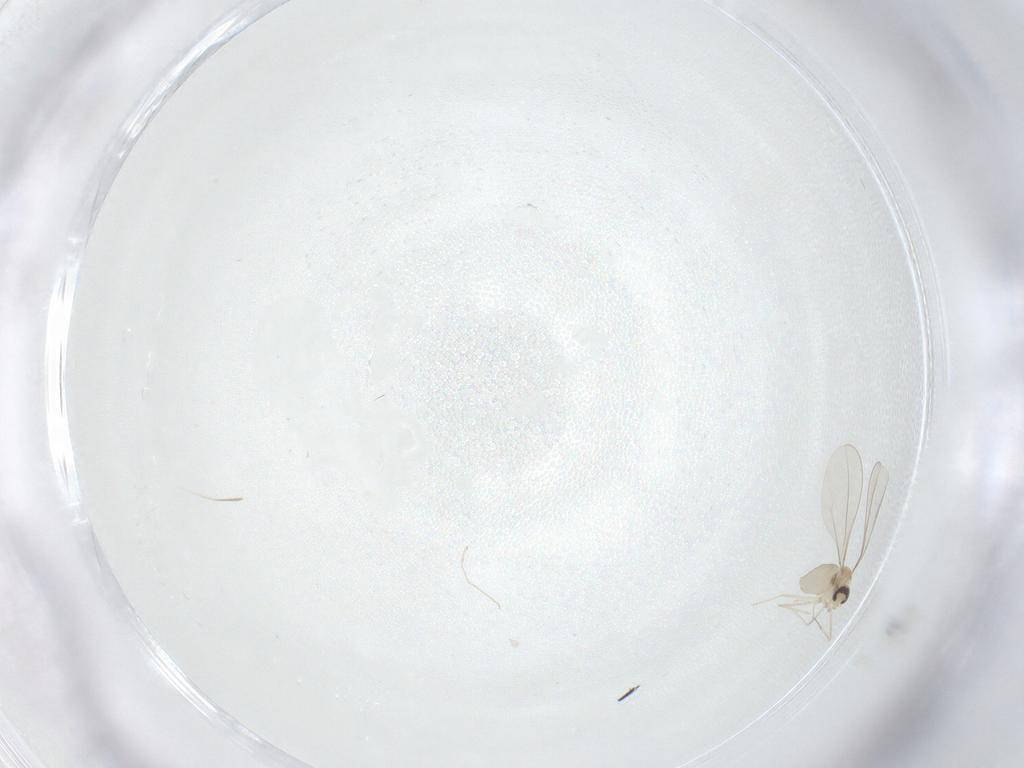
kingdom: Animalia
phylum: Arthropoda
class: Insecta
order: Diptera
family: Cecidomyiidae
